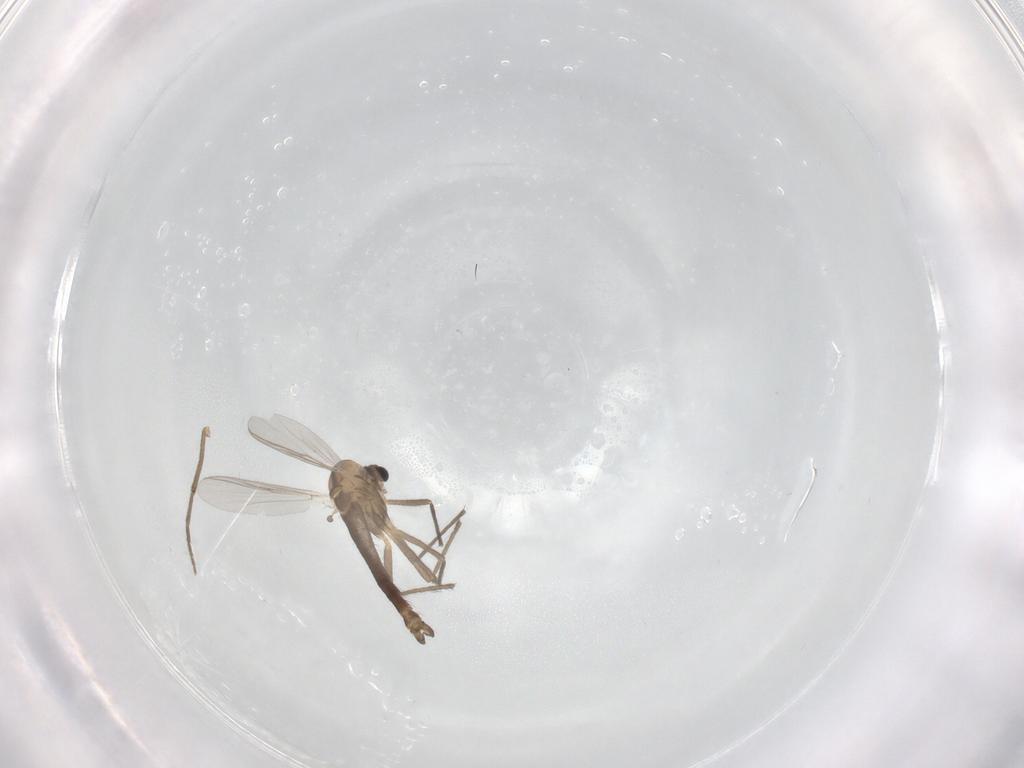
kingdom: Animalia
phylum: Arthropoda
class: Insecta
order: Diptera
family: Chironomidae
